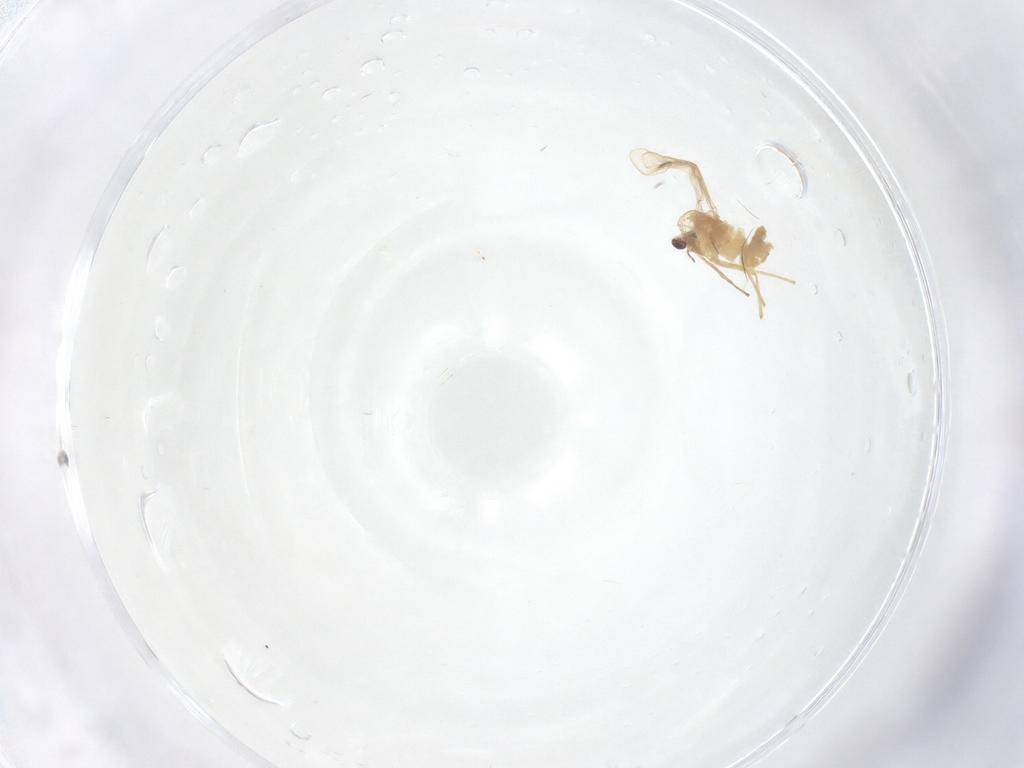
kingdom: Animalia
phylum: Arthropoda
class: Insecta
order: Diptera
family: Chironomidae
